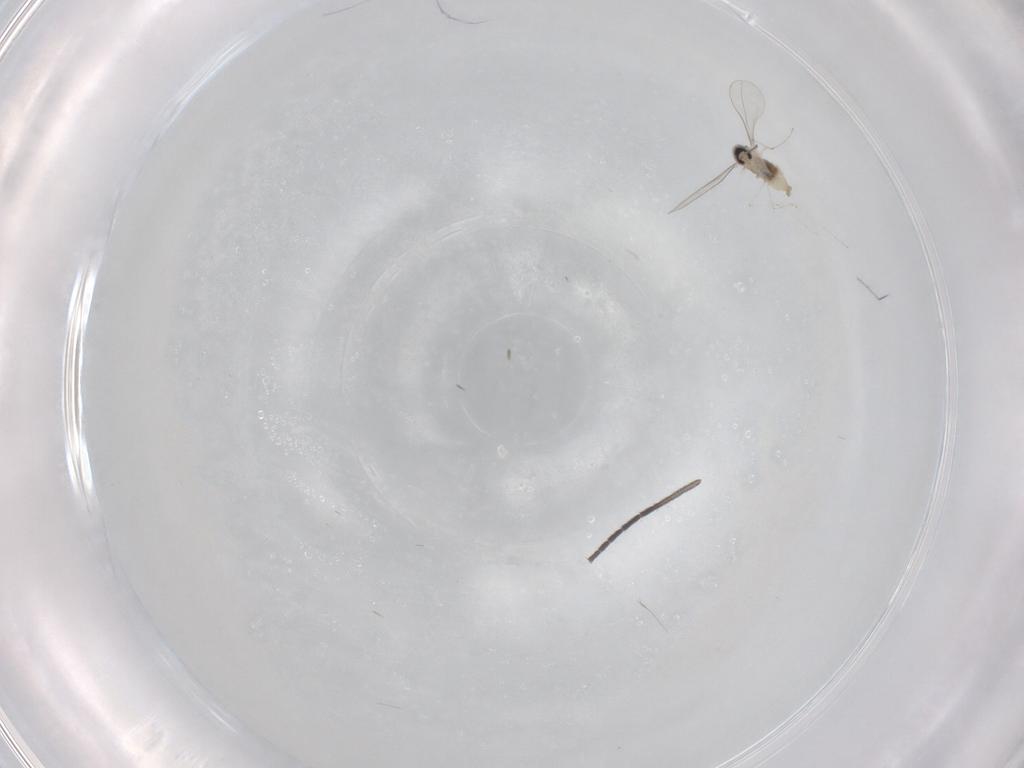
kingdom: Animalia
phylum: Arthropoda
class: Insecta
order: Diptera
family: Cecidomyiidae
